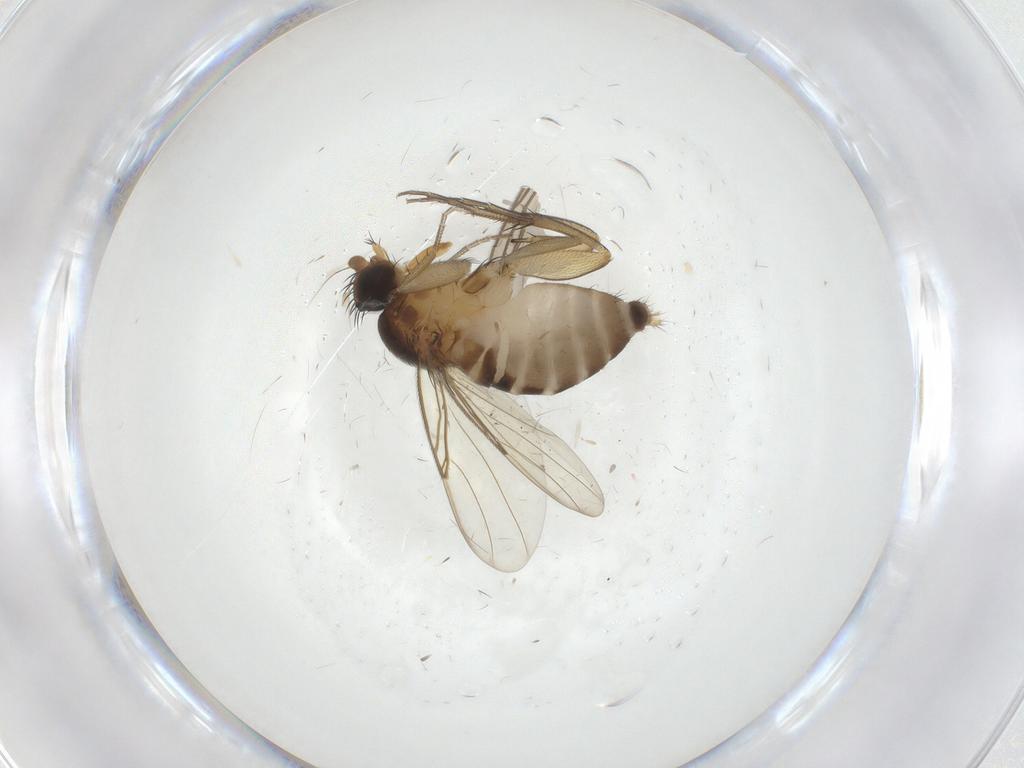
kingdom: Animalia
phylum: Arthropoda
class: Insecta
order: Diptera
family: Phoridae
